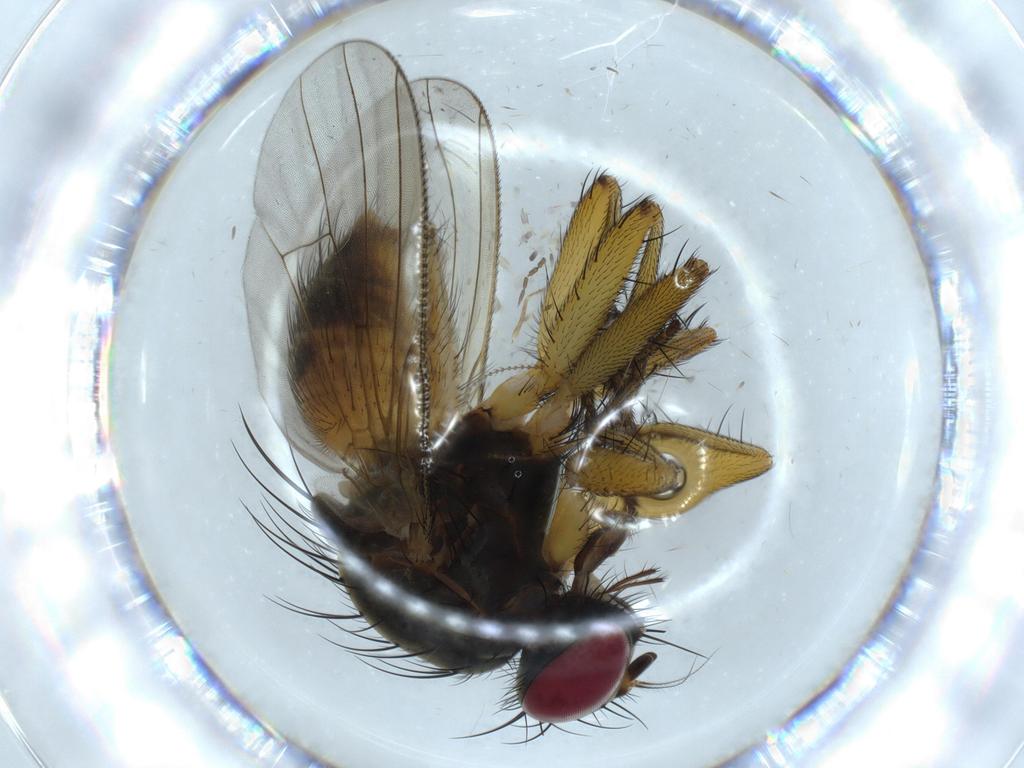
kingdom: Animalia
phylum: Arthropoda
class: Insecta
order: Diptera
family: Muscidae
